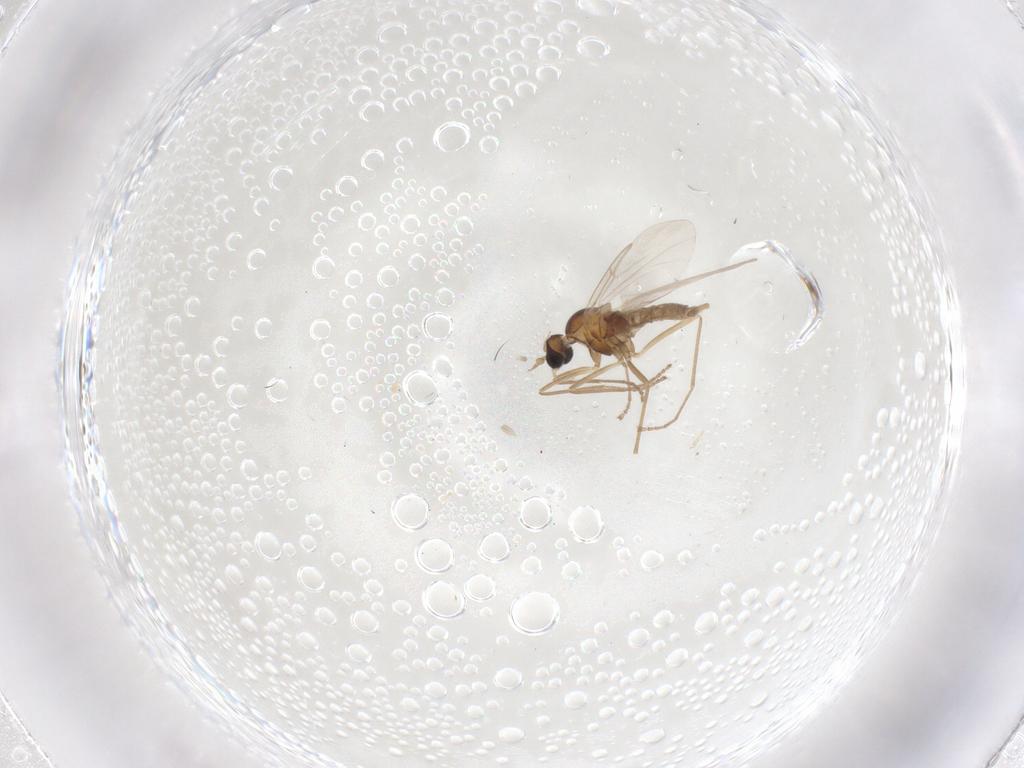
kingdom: Animalia
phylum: Arthropoda
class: Insecta
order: Diptera
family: Cecidomyiidae
